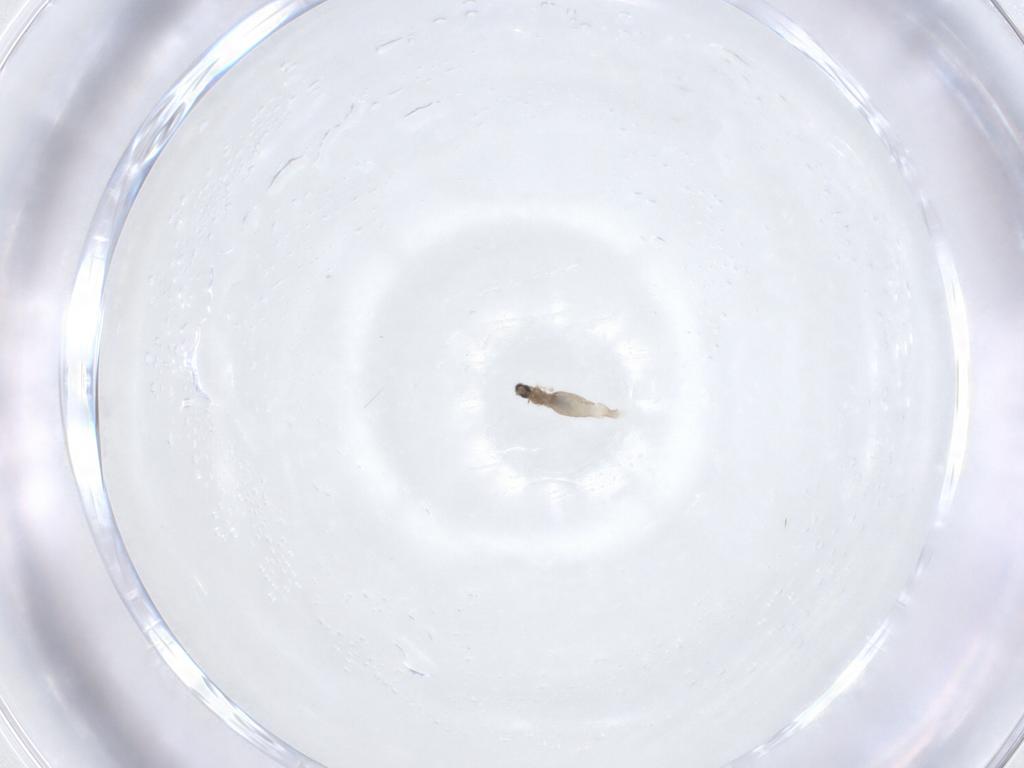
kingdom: Animalia
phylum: Arthropoda
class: Insecta
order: Diptera
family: Cecidomyiidae
